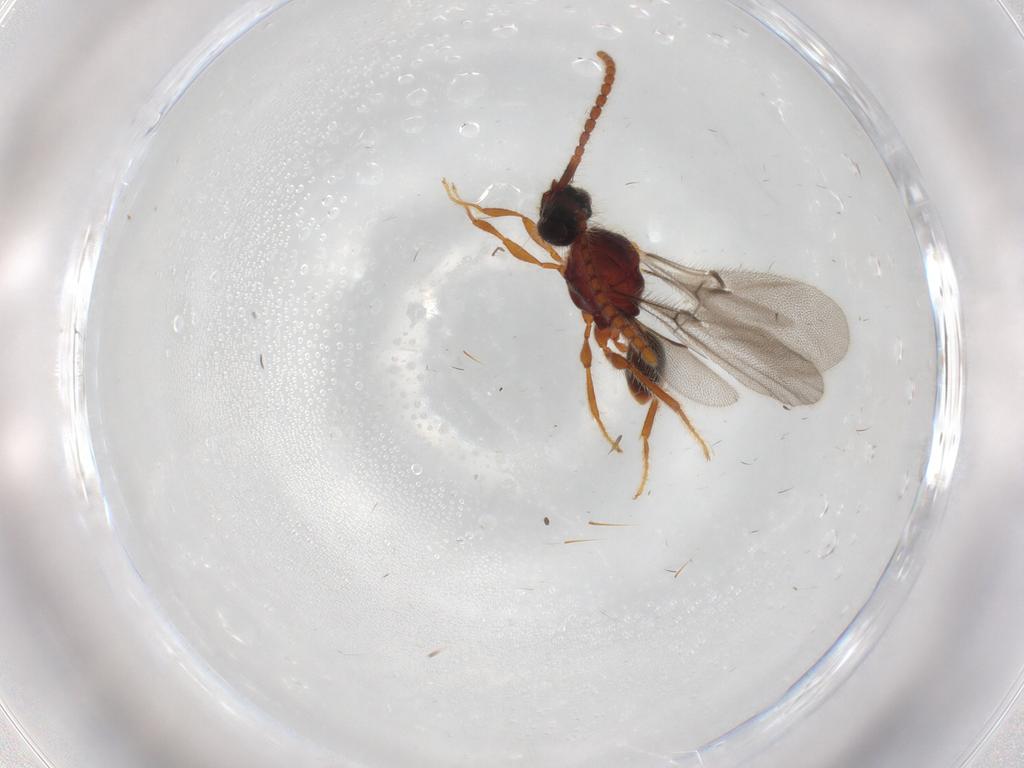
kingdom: Animalia
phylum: Arthropoda
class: Insecta
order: Hymenoptera
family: Diapriidae
